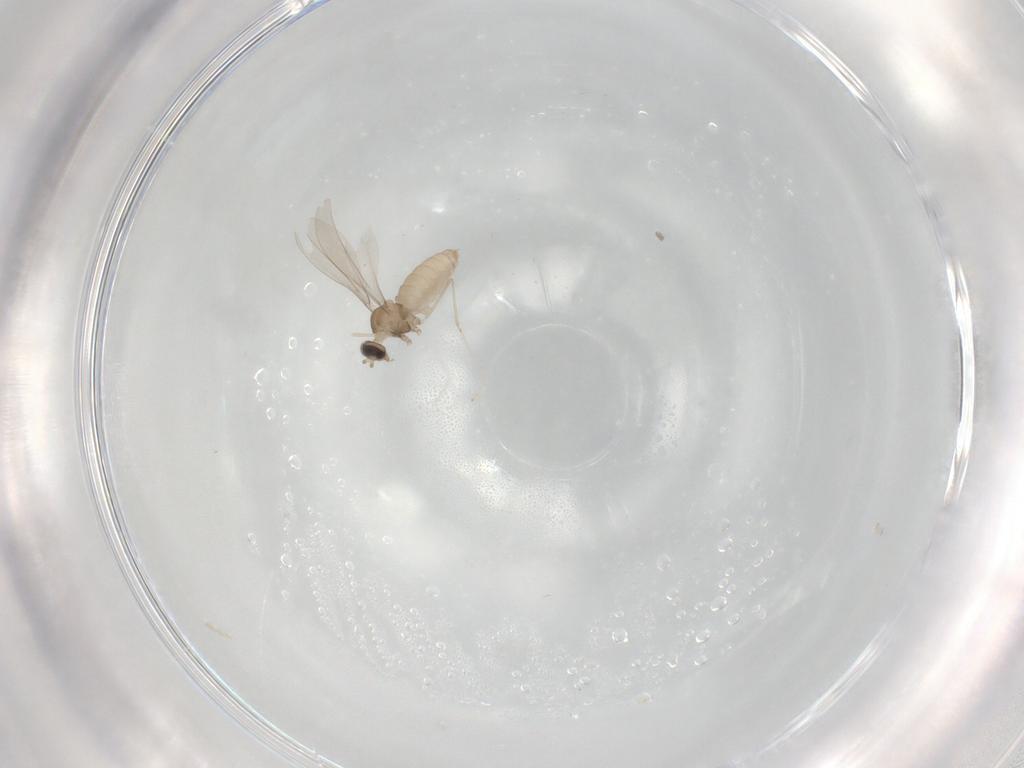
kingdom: Animalia
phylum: Arthropoda
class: Insecta
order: Diptera
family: Cecidomyiidae
